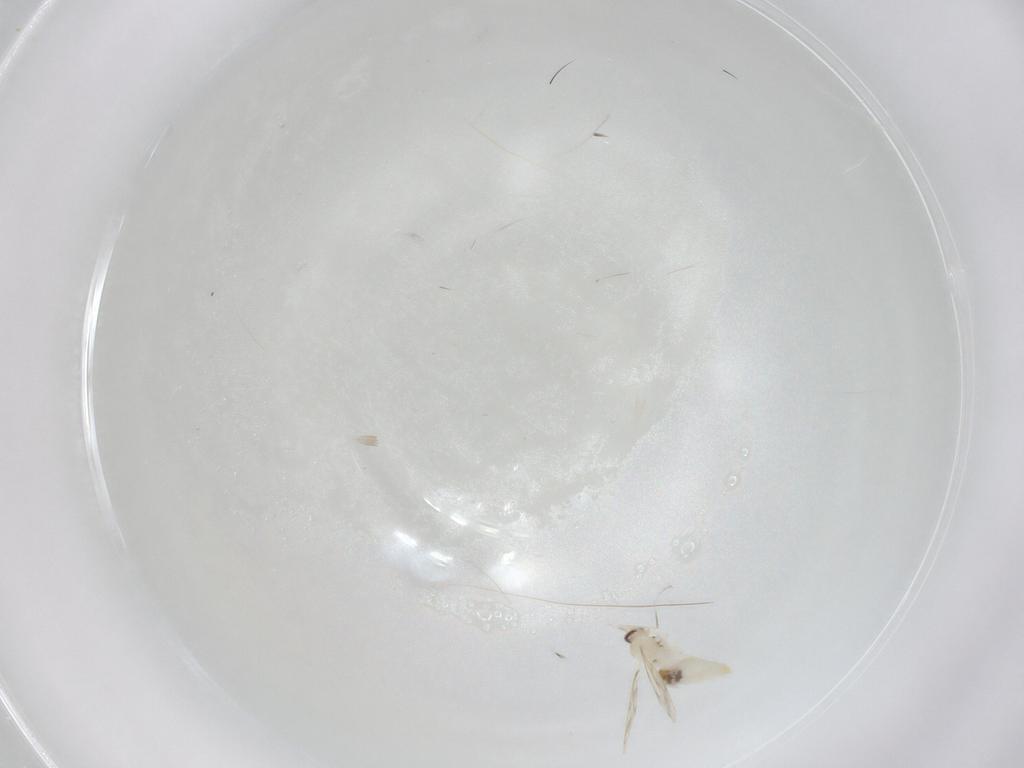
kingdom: Animalia
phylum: Arthropoda
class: Insecta
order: Diptera
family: Cecidomyiidae
